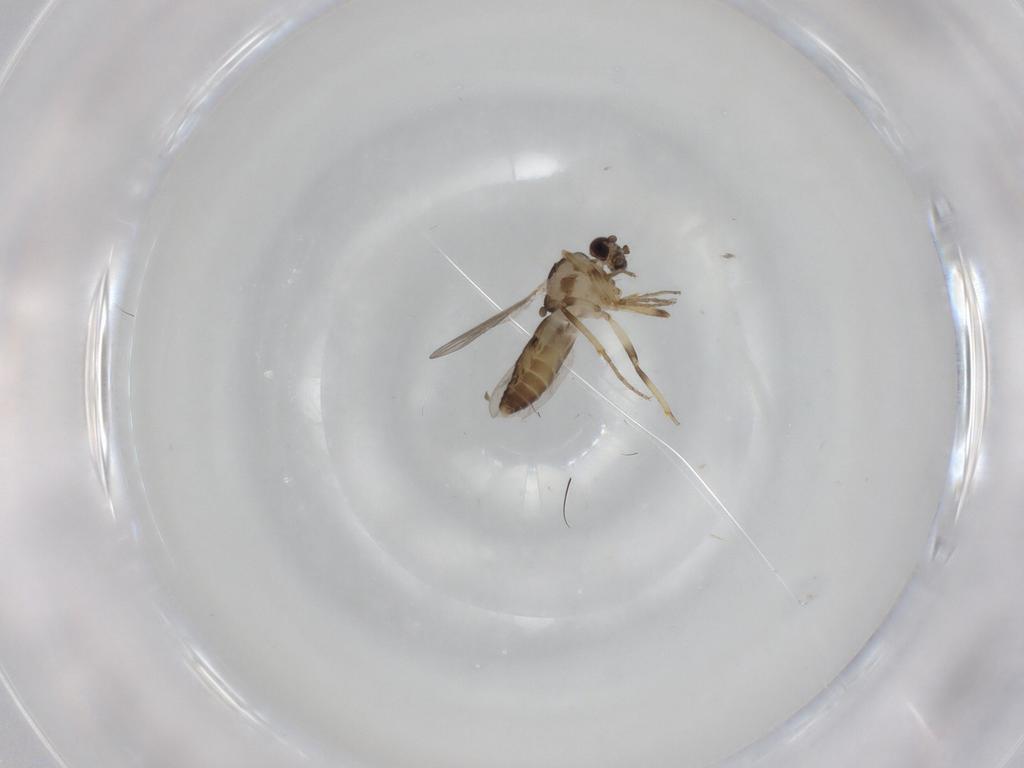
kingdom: Animalia
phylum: Arthropoda
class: Insecta
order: Diptera
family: Ceratopogonidae
